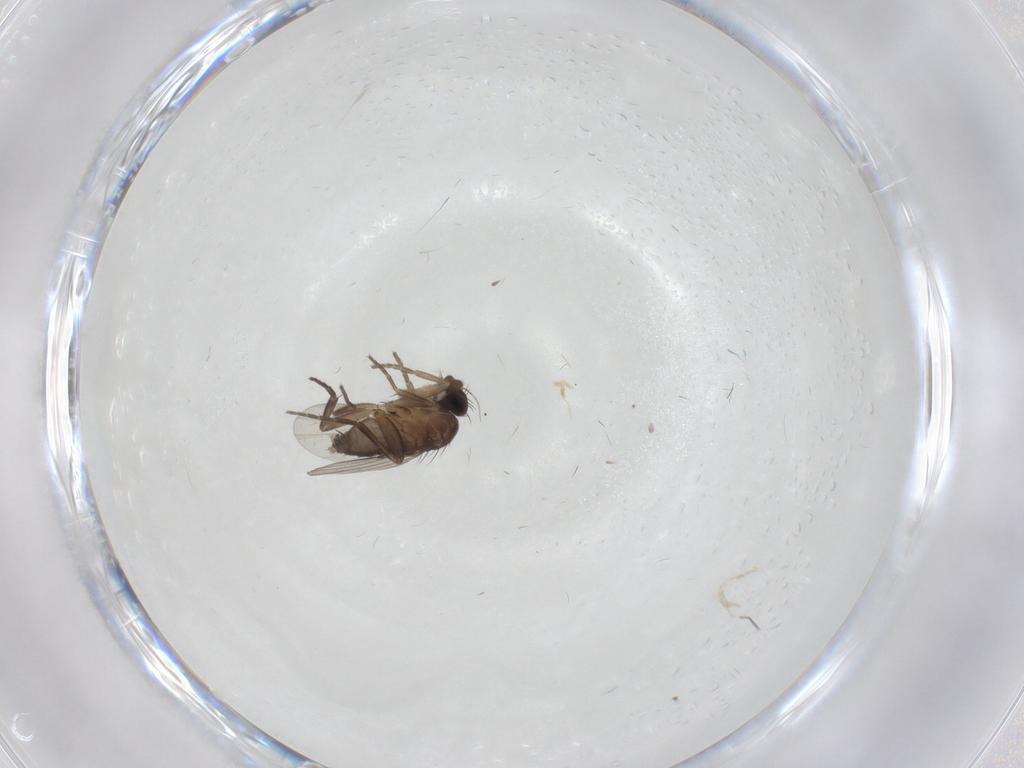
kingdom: Animalia
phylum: Arthropoda
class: Insecta
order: Diptera
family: Phoridae
